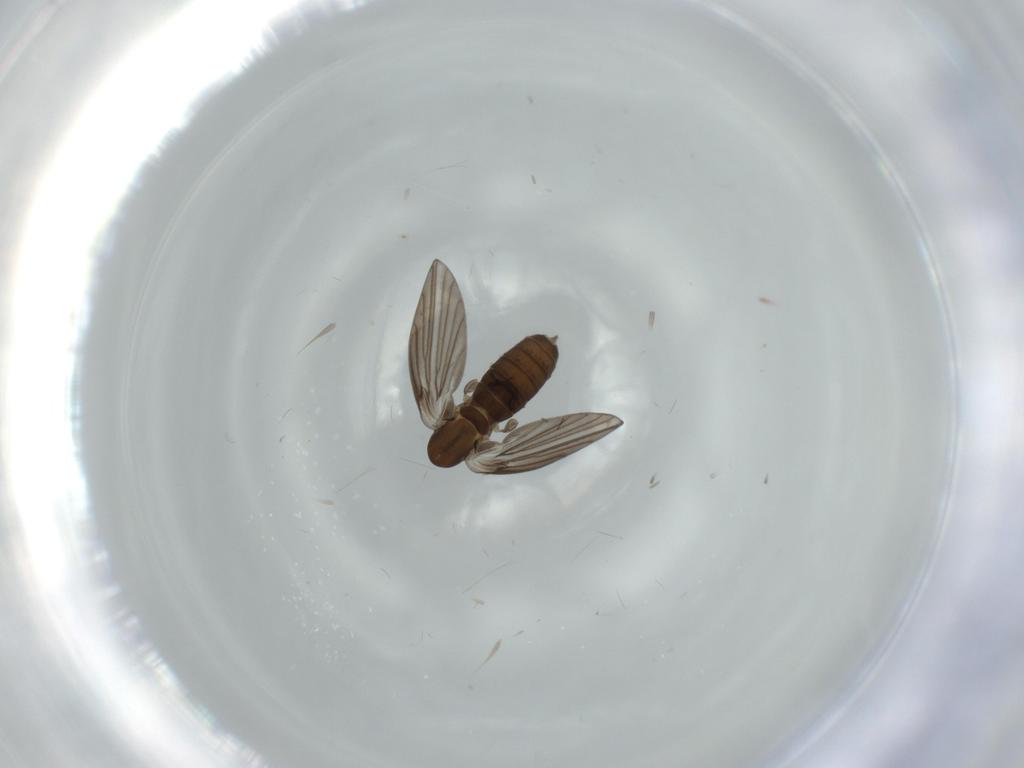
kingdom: Animalia
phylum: Arthropoda
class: Insecta
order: Diptera
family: Psychodidae
